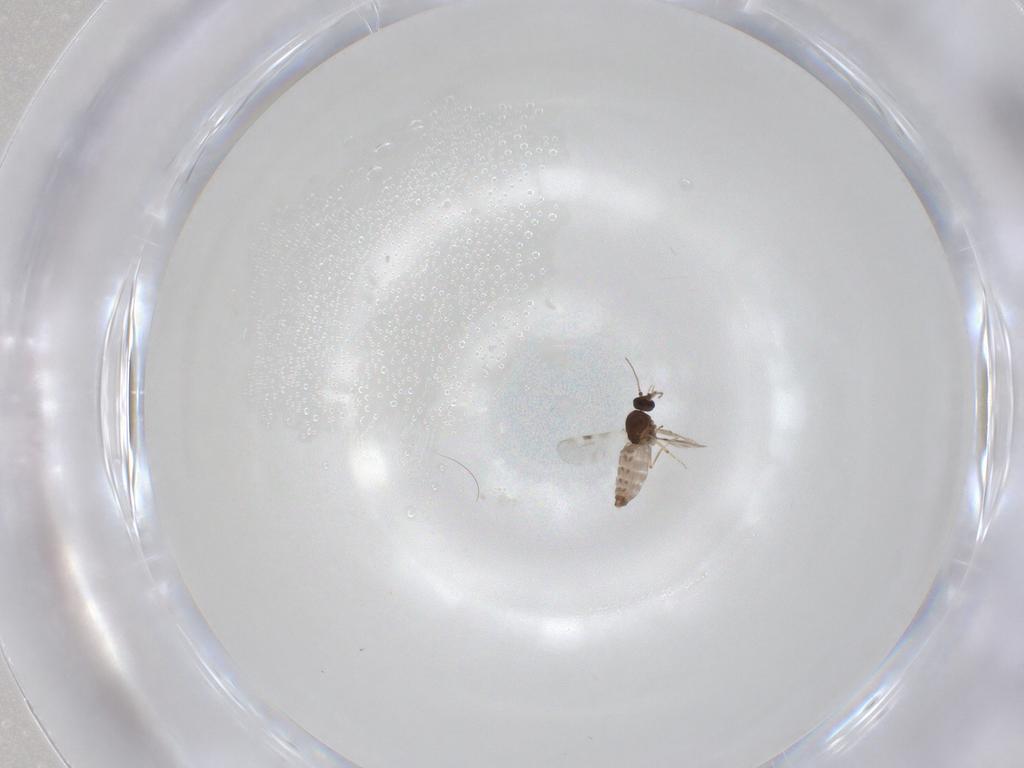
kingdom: Animalia
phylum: Arthropoda
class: Insecta
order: Diptera
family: Chironomidae
